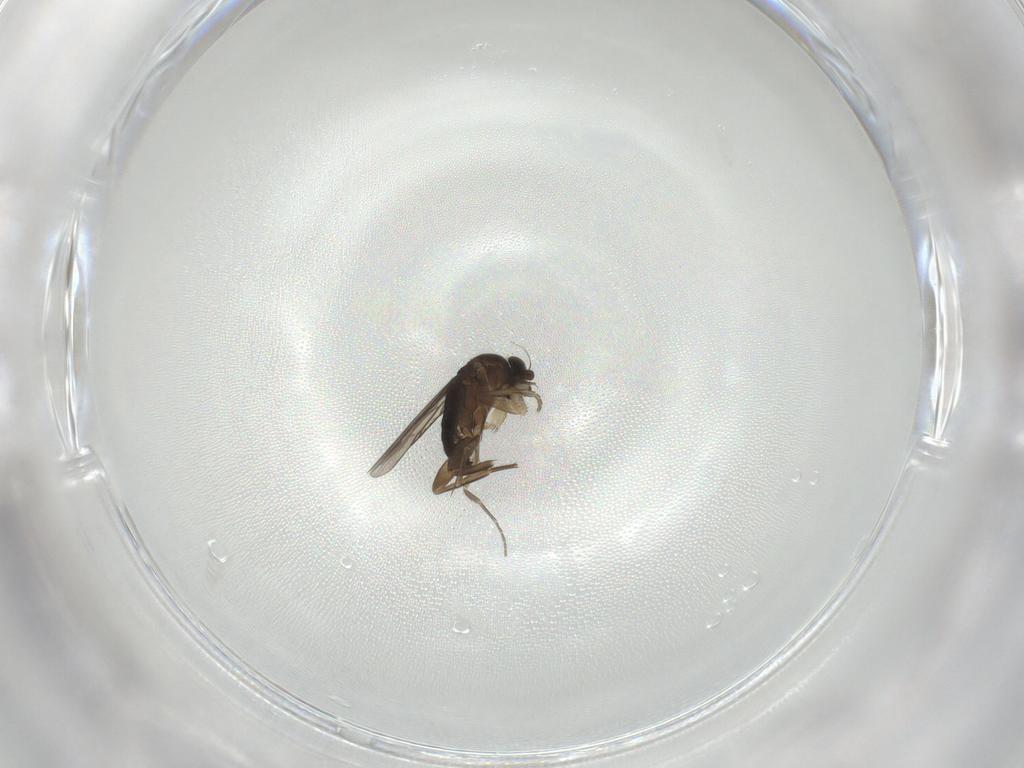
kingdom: Animalia
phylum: Arthropoda
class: Insecta
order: Diptera
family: Phoridae
